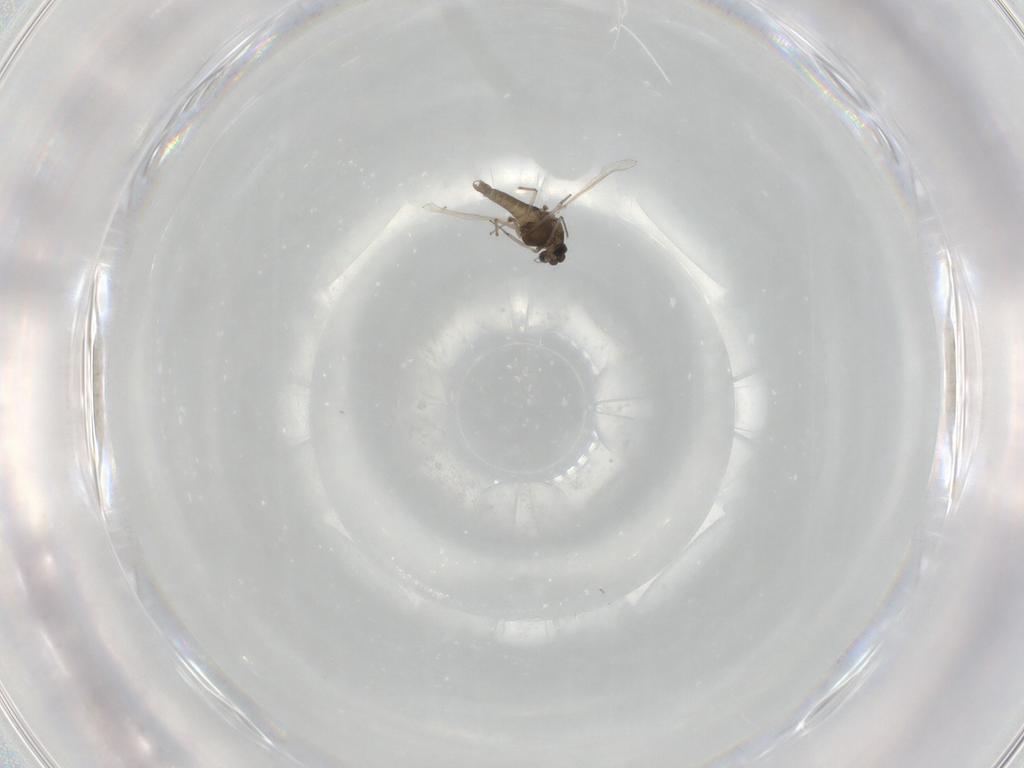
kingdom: Animalia
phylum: Arthropoda
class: Insecta
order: Diptera
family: Chironomidae
